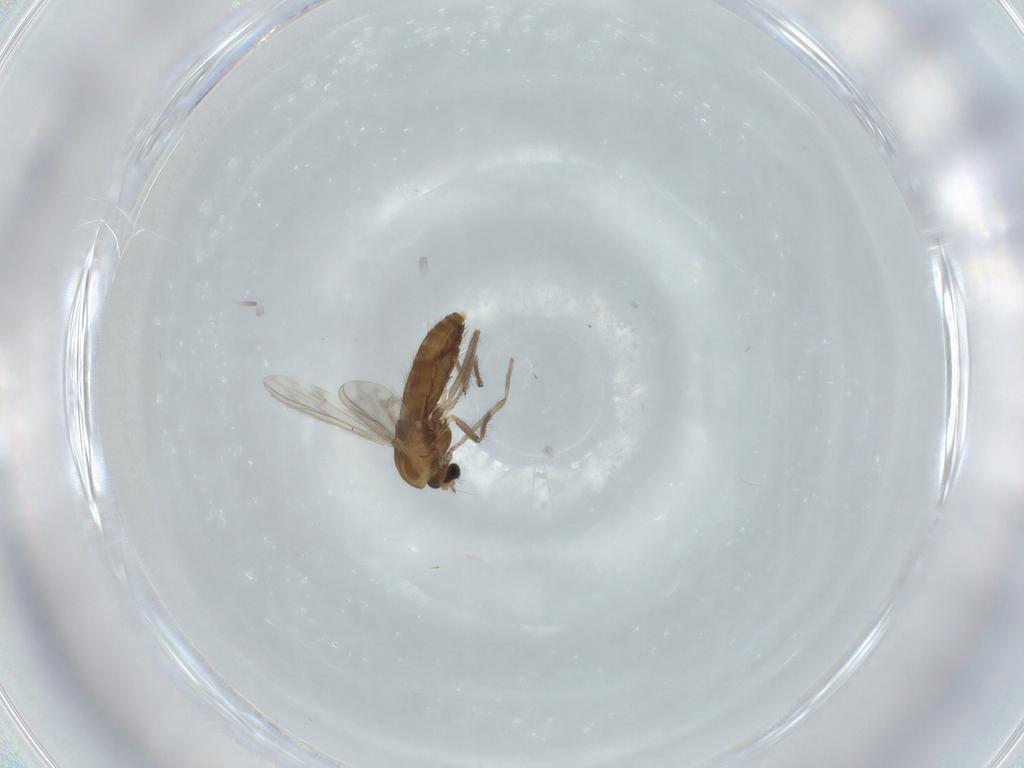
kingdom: Animalia
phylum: Arthropoda
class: Insecta
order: Diptera
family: Chironomidae
